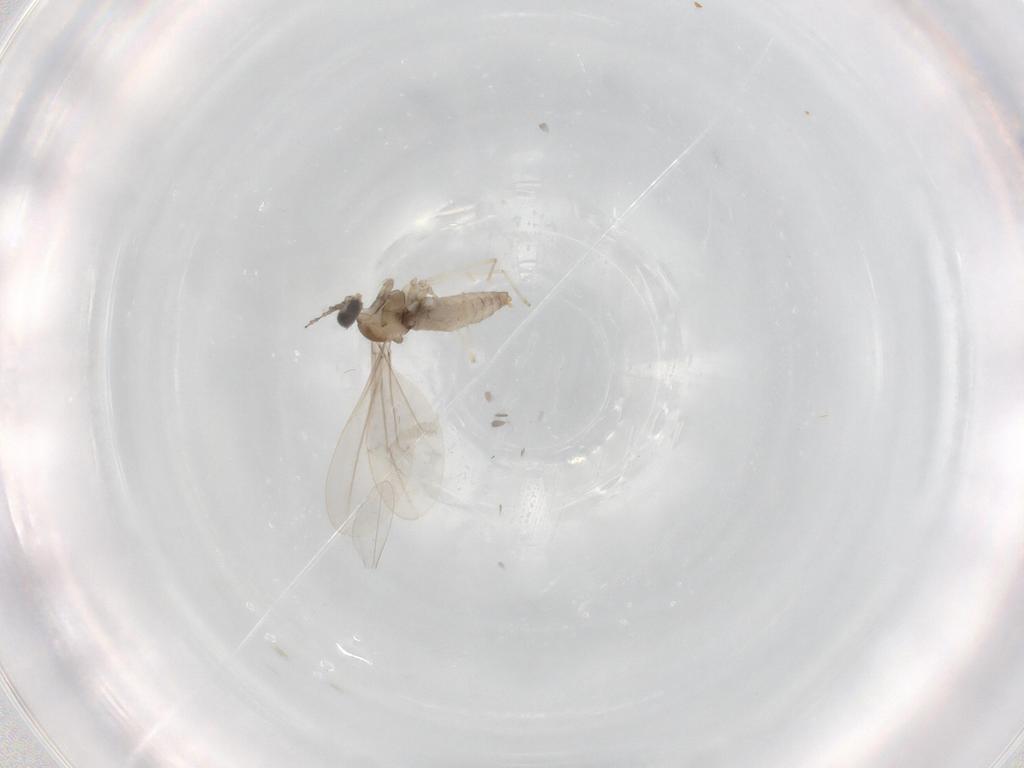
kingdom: Animalia
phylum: Arthropoda
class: Insecta
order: Diptera
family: Cecidomyiidae
